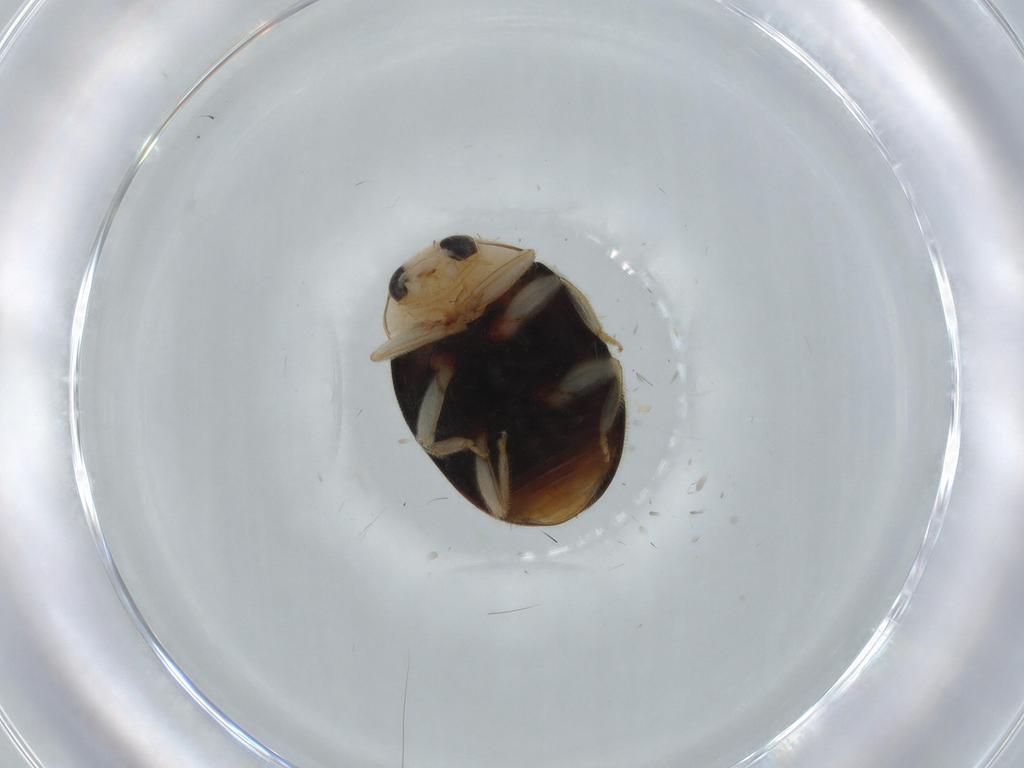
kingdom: Animalia
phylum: Arthropoda
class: Insecta
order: Coleoptera
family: Coccinellidae
